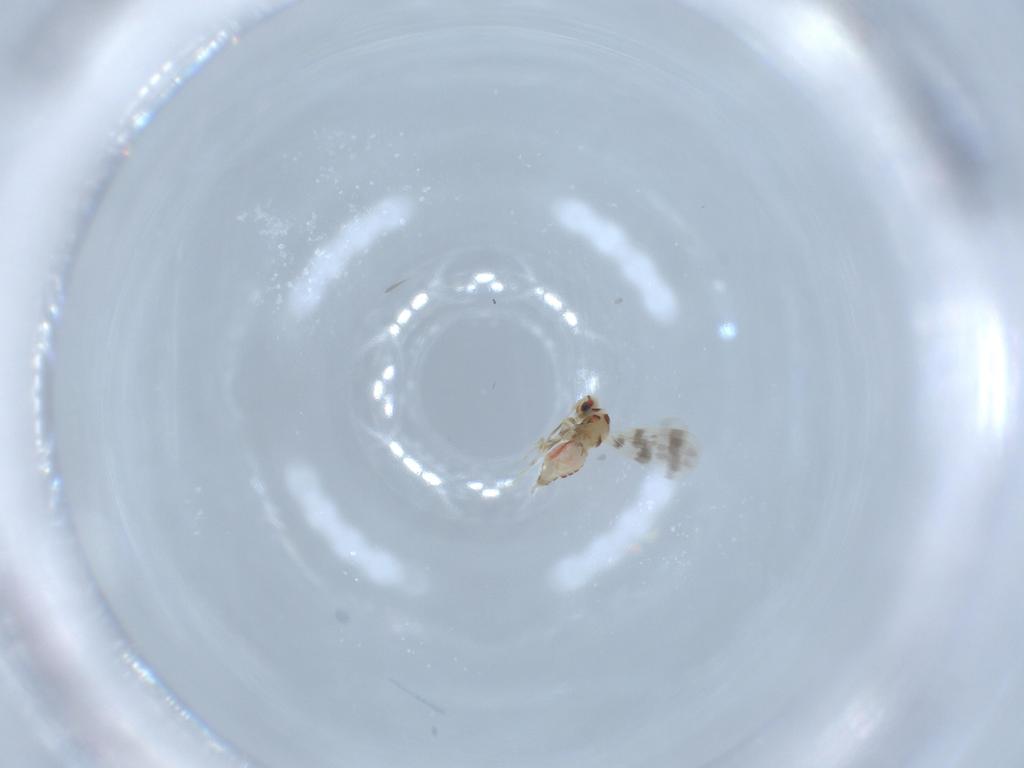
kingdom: Animalia
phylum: Arthropoda
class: Insecta
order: Hemiptera
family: Aleyrodidae
